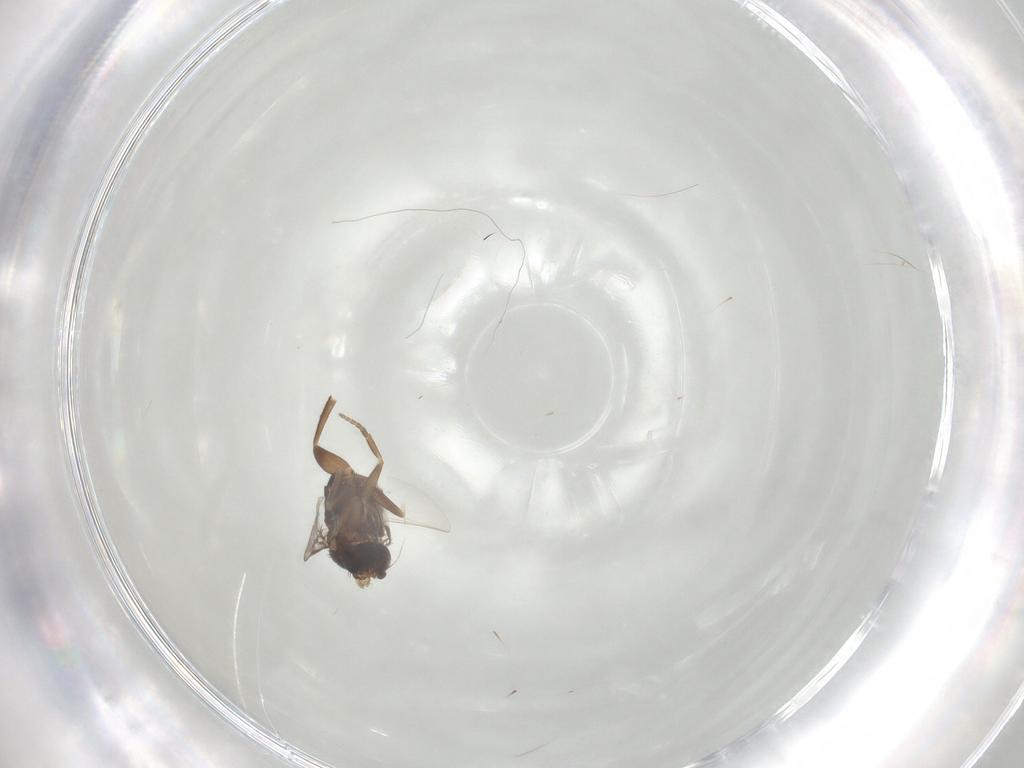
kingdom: Animalia
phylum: Arthropoda
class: Insecta
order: Diptera
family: Phoridae
